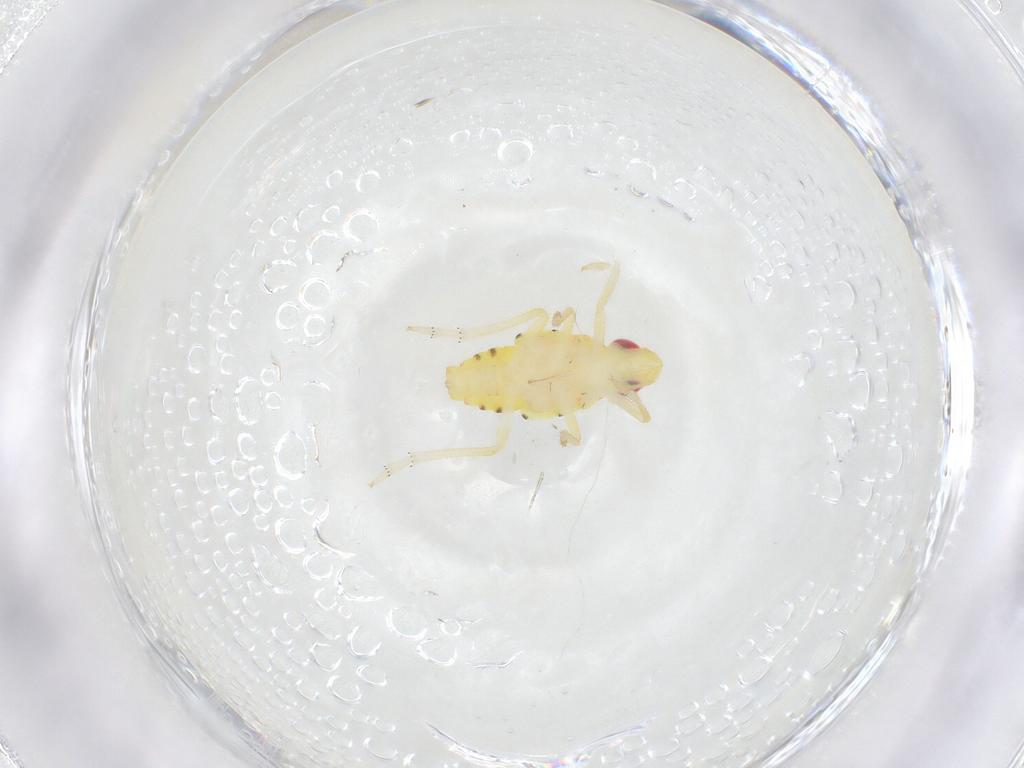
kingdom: Animalia
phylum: Arthropoda
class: Insecta
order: Hemiptera
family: Tropiduchidae
